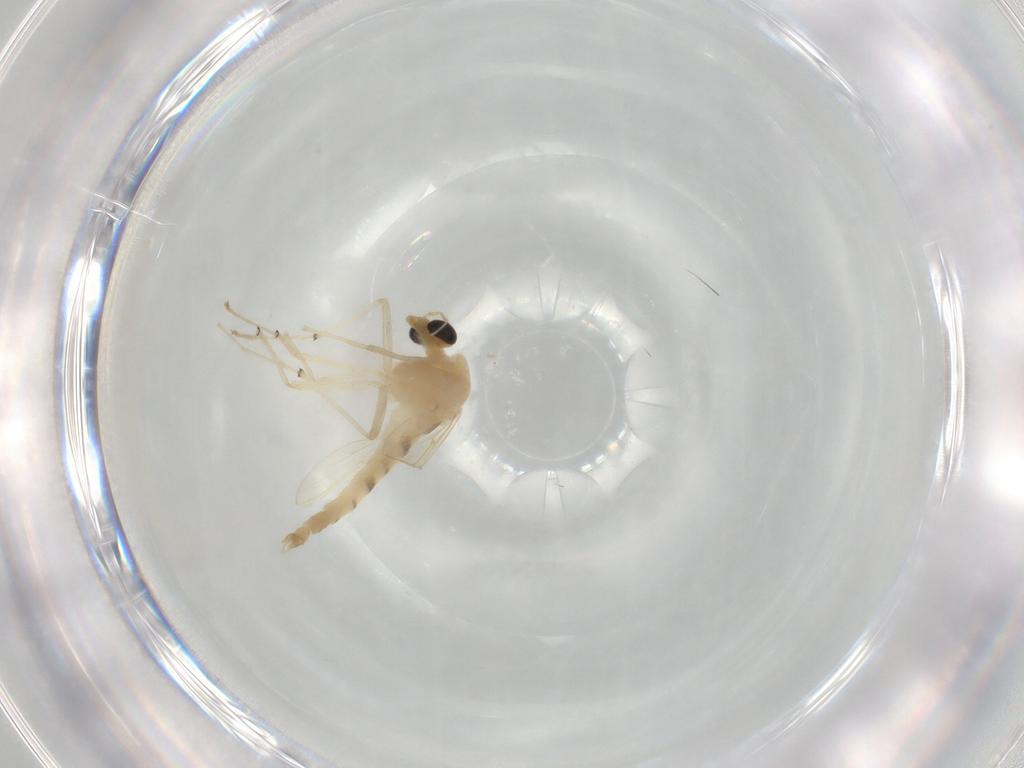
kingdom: Animalia
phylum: Arthropoda
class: Insecta
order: Diptera
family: Chironomidae
